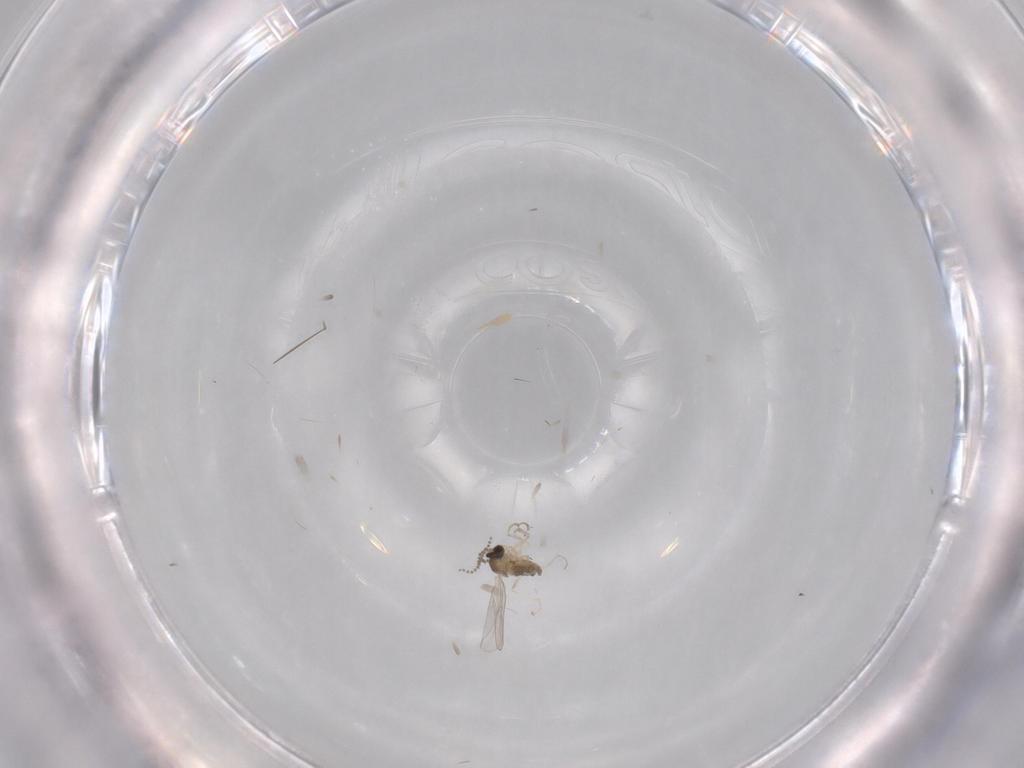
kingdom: Animalia
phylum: Arthropoda
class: Insecta
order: Diptera
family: Cecidomyiidae
